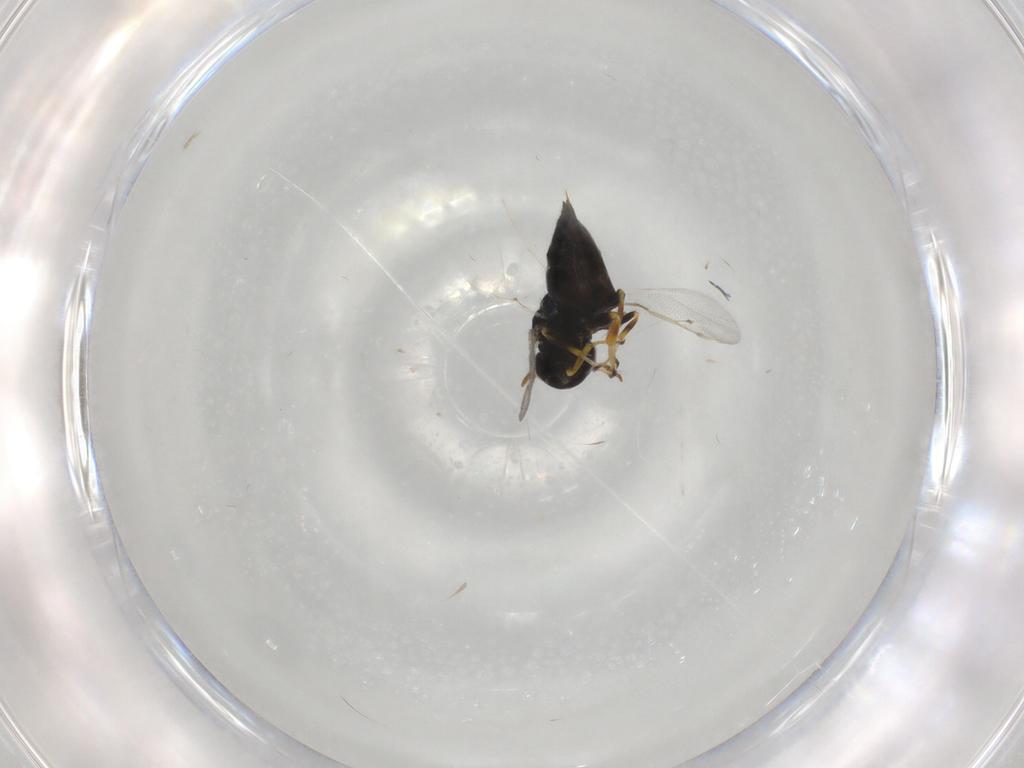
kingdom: Animalia
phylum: Arthropoda
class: Insecta
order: Hymenoptera
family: Pteromalidae
